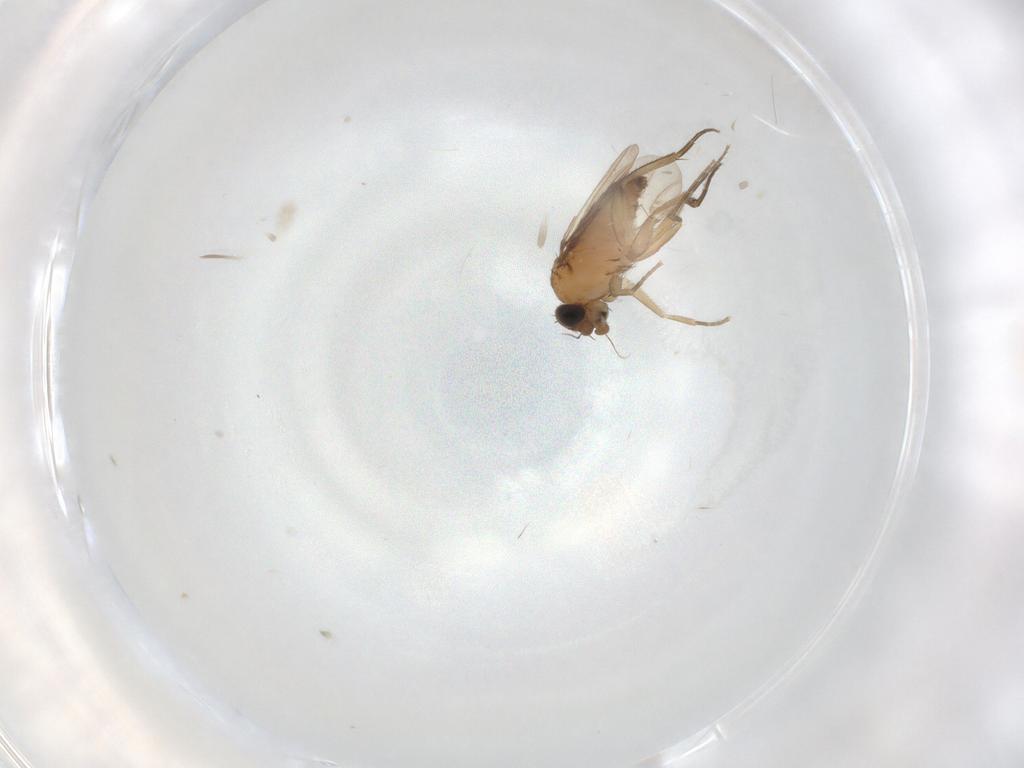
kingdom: Animalia
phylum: Arthropoda
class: Insecta
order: Diptera
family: Phoridae
